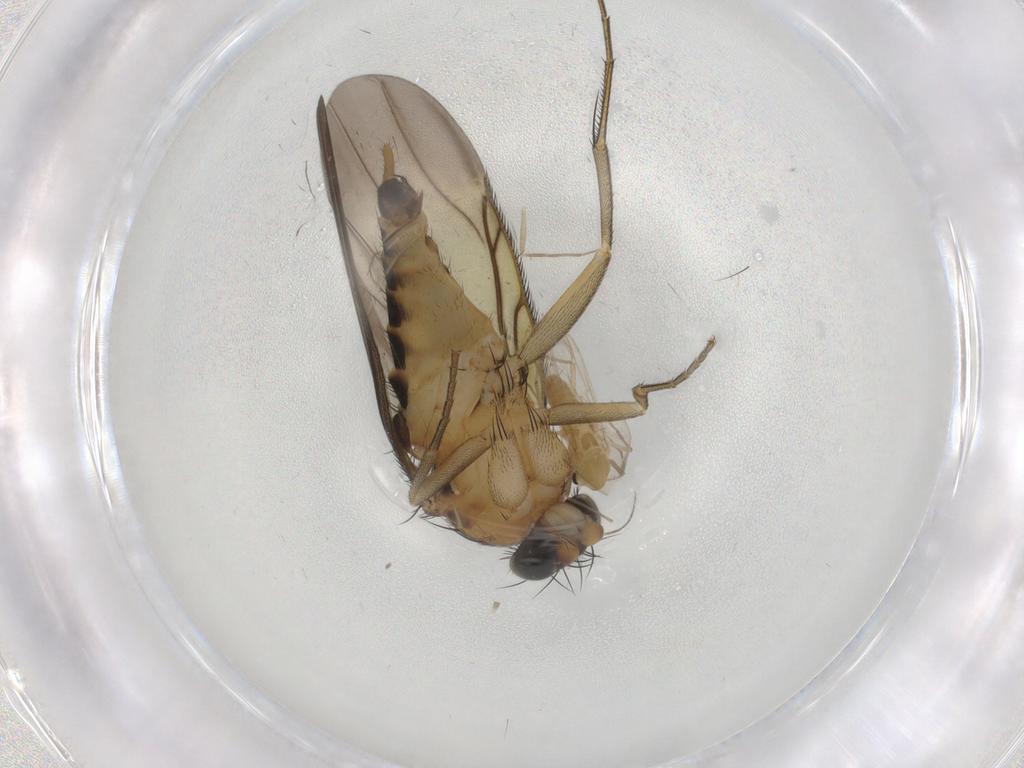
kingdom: Animalia
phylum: Arthropoda
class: Insecta
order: Diptera
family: Phoridae
